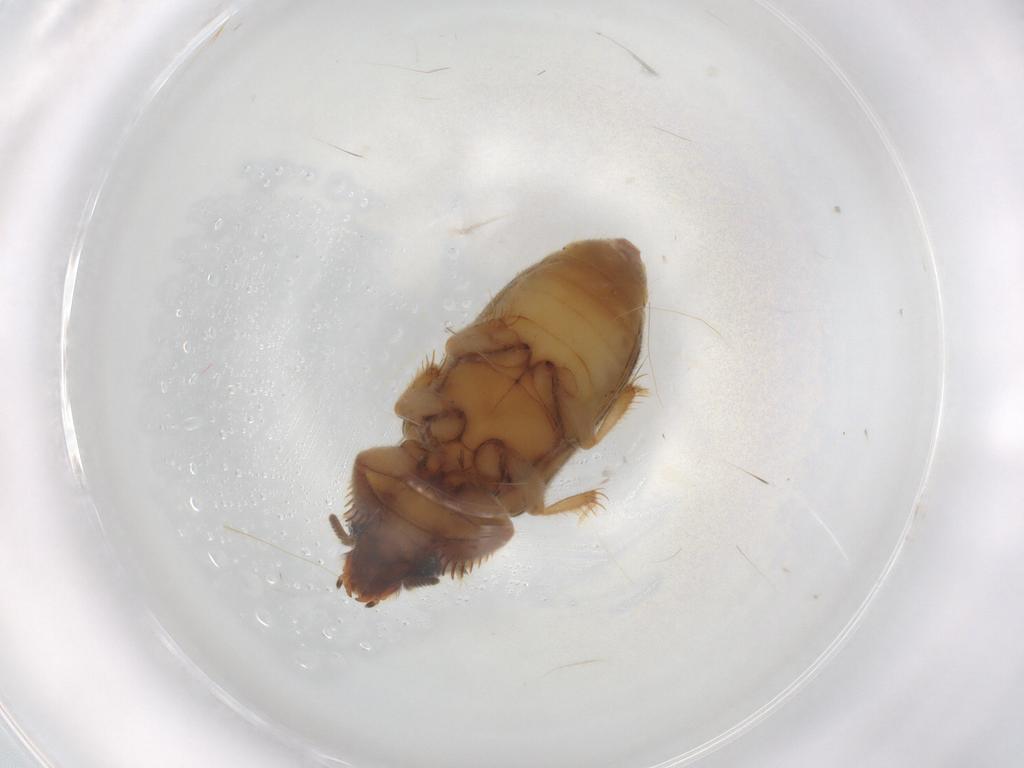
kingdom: Animalia
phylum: Arthropoda
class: Insecta
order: Coleoptera
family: Heteroceridae
